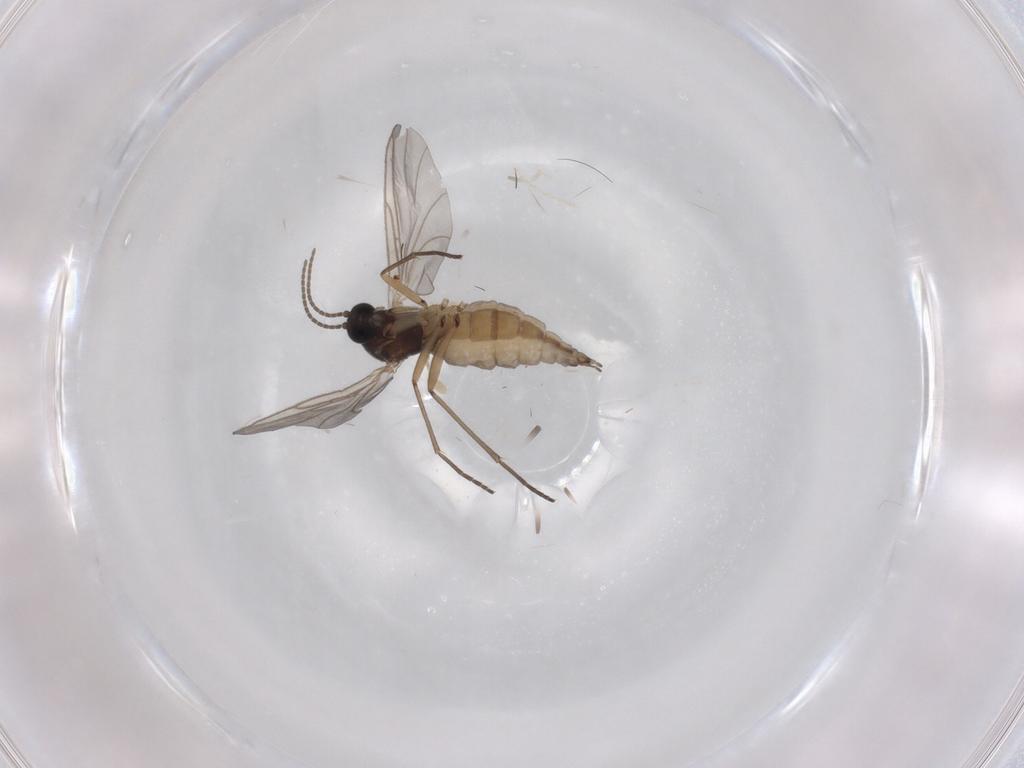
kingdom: Animalia
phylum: Arthropoda
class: Insecta
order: Diptera
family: Sciaridae
